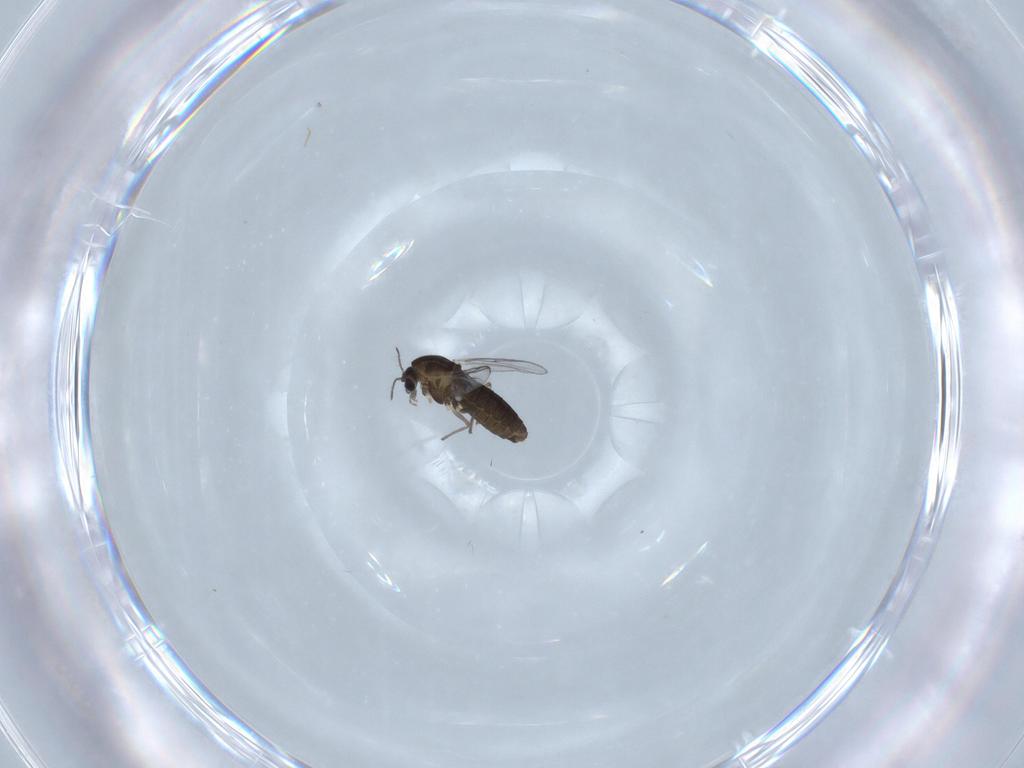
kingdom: Animalia
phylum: Arthropoda
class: Insecta
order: Diptera
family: Chironomidae
